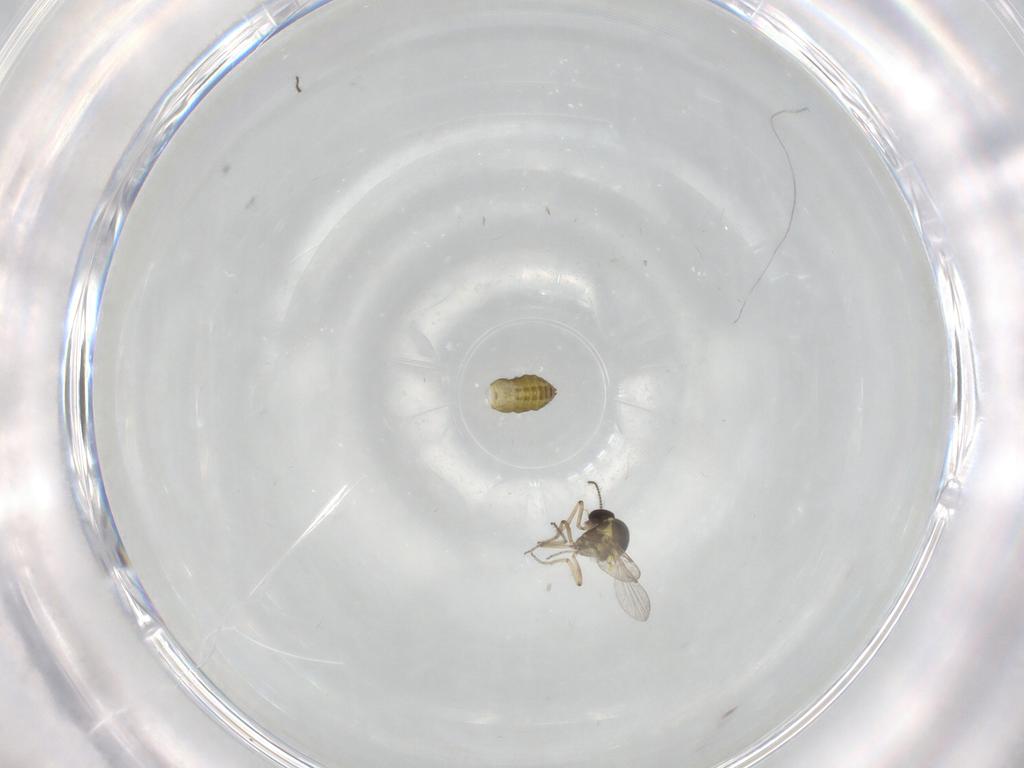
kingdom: Animalia
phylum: Arthropoda
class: Insecta
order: Diptera
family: Ceratopogonidae
